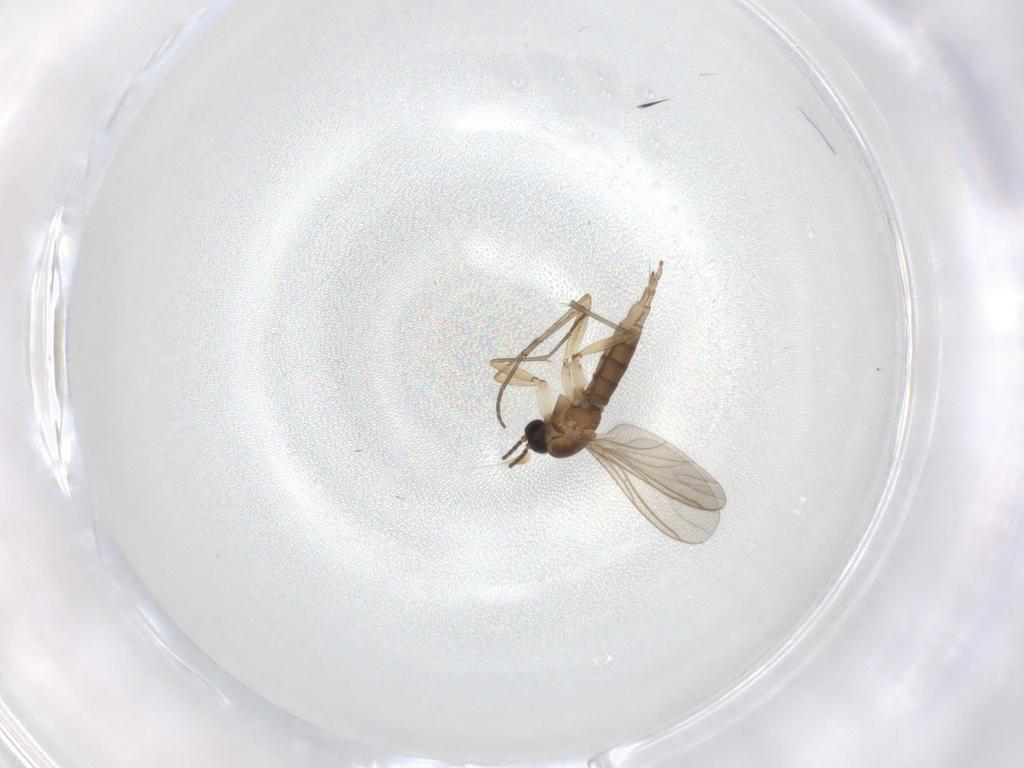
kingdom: Animalia
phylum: Arthropoda
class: Insecta
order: Diptera
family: Sciaridae
